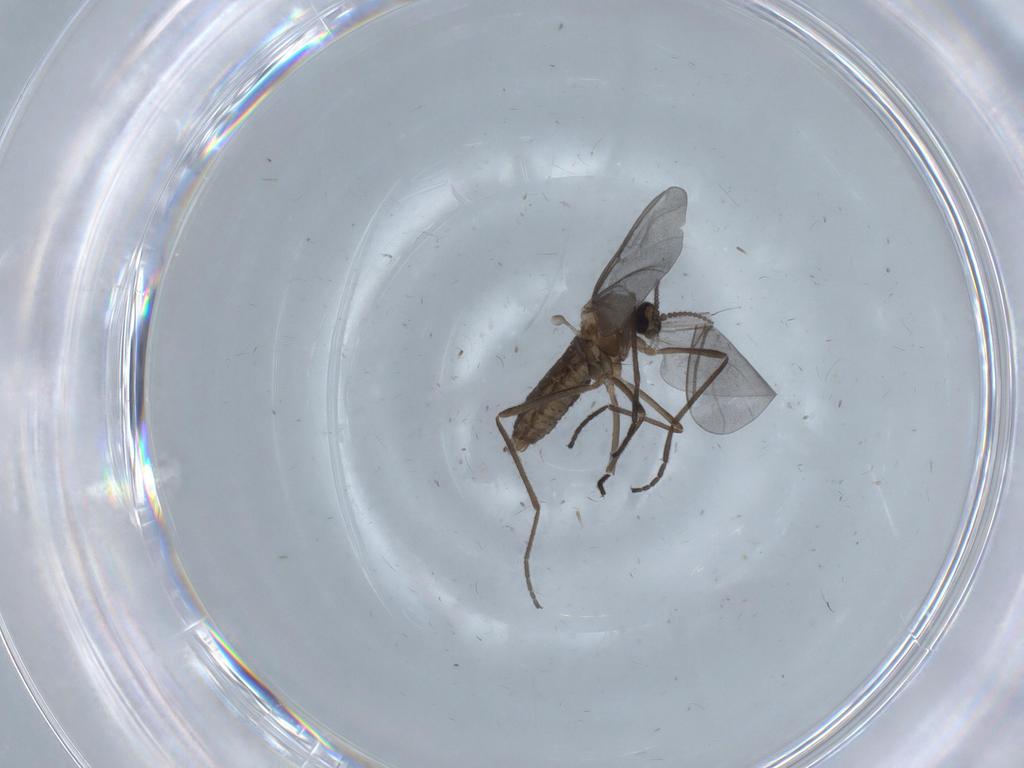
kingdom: Animalia
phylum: Arthropoda
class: Insecta
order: Diptera
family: Cecidomyiidae
